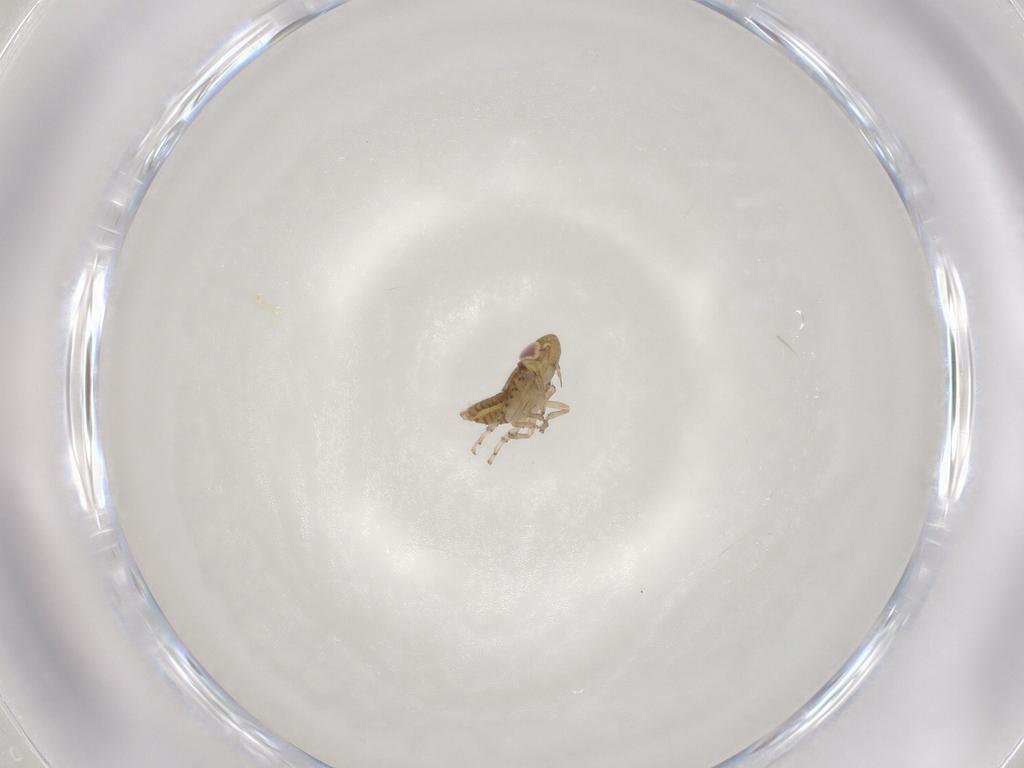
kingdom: Animalia
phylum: Arthropoda
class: Insecta
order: Hemiptera
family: Cicadellidae
